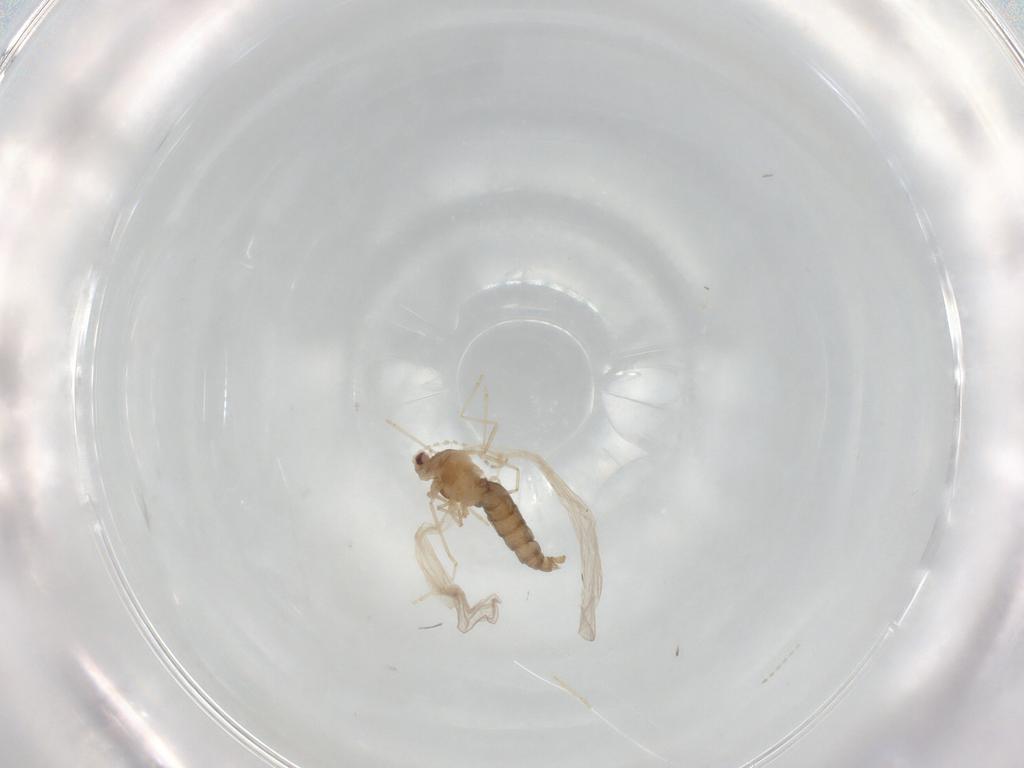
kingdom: Animalia
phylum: Arthropoda
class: Insecta
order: Diptera
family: Cecidomyiidae
